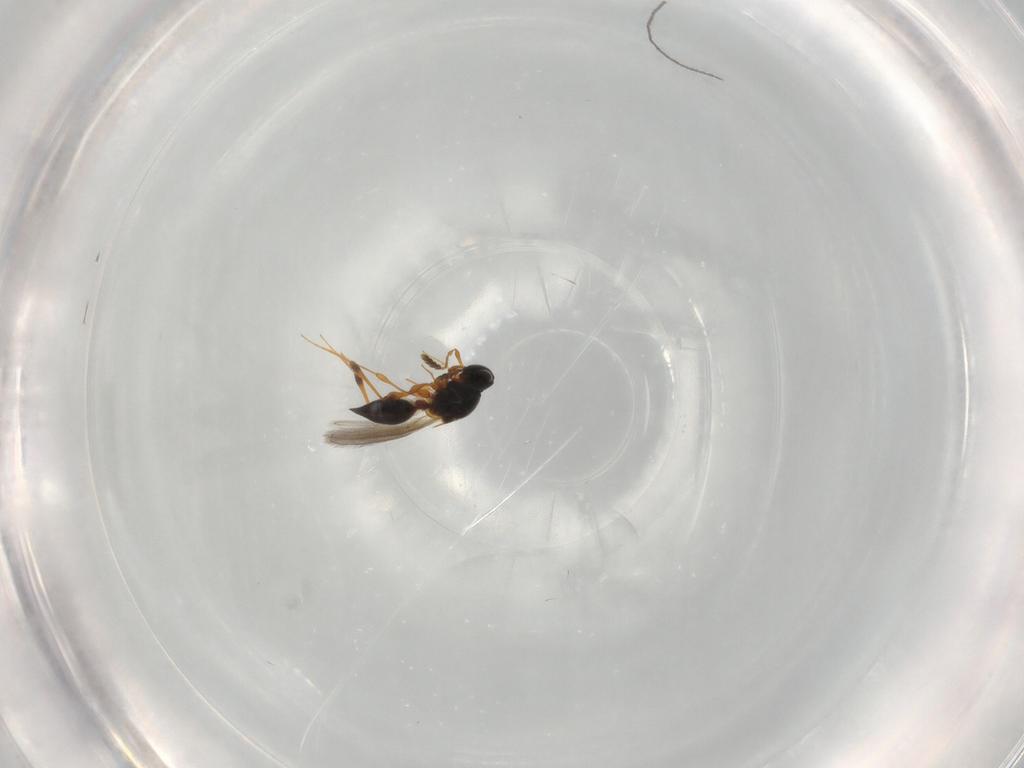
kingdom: Animalia
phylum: Arthropoda
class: Insecta
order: Hymenoptera
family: Platygastridae
